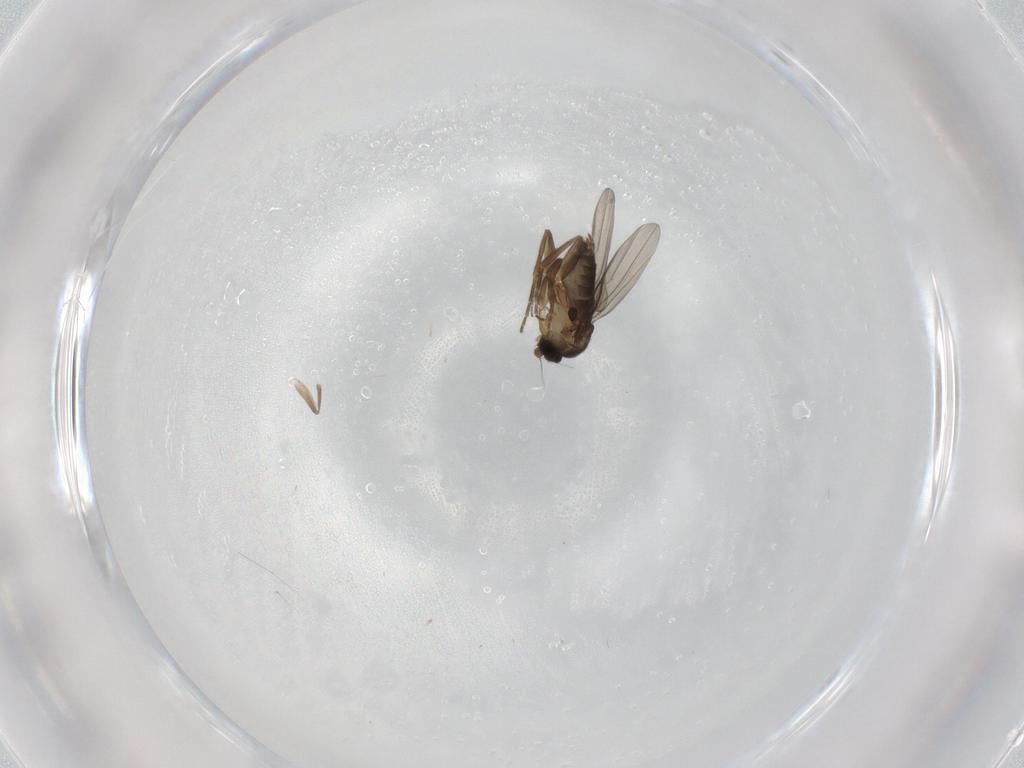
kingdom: Animalia
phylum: Arthropoda
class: Insecta
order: Diptera
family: Phoridae
